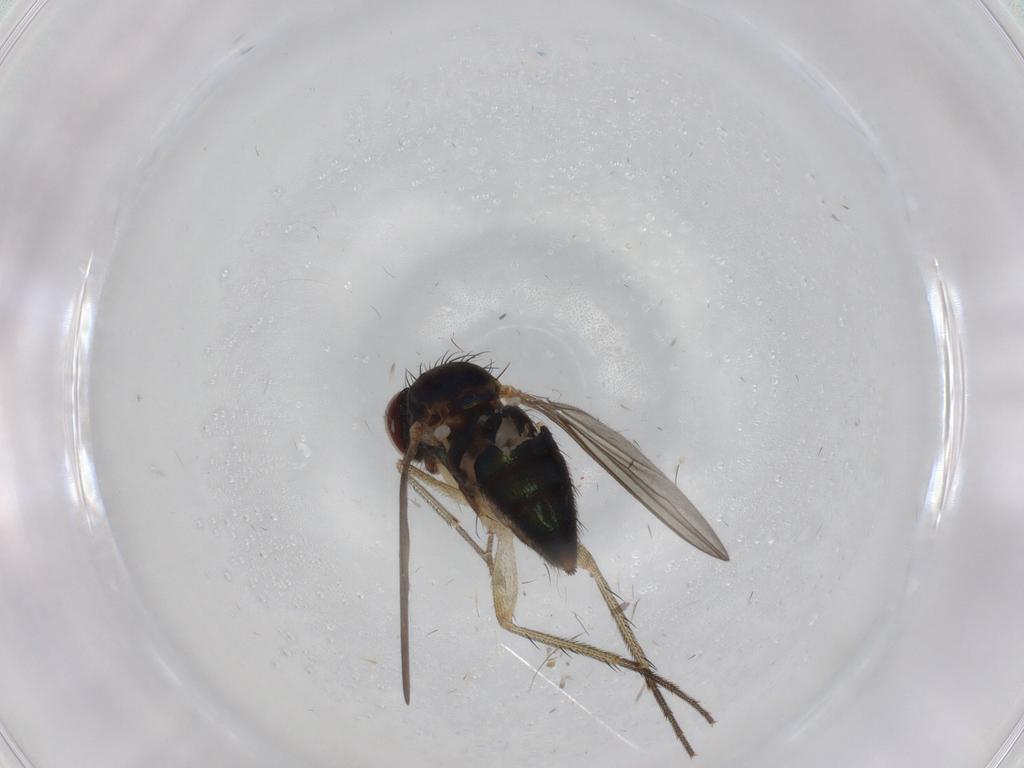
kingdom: Animalia
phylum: Arthropoda
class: Insecta
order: Diptera
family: Dolichopodidae
